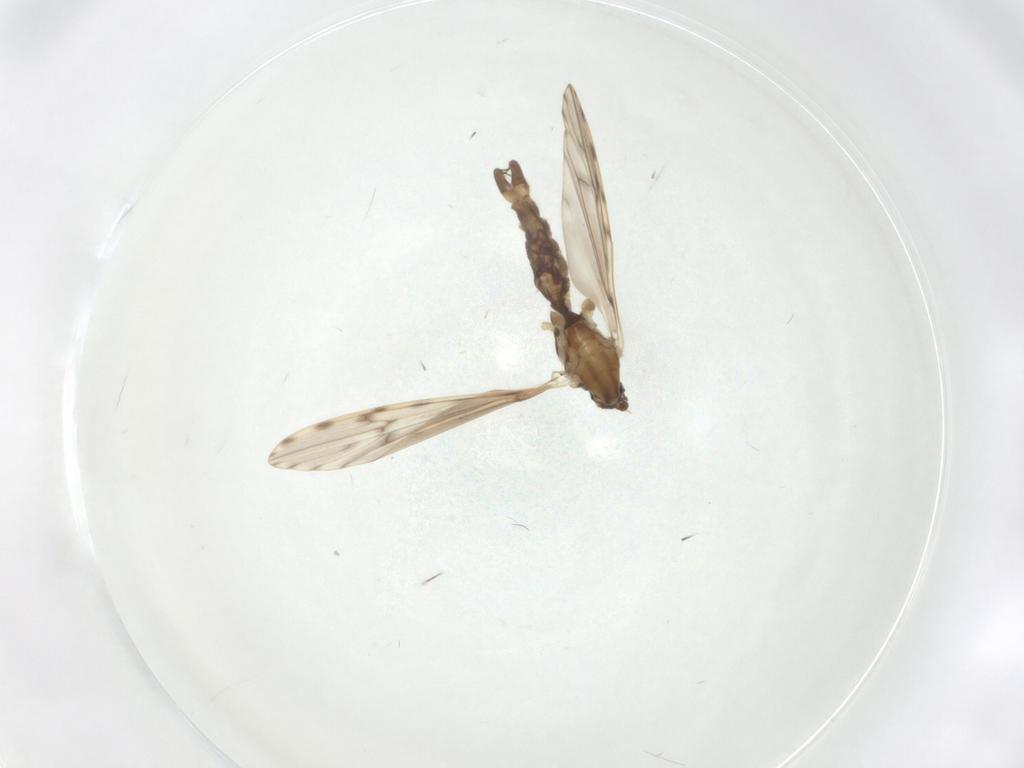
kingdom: Animalia
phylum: Arthropoda
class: Insecta
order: Diptera
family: Limoniidae
